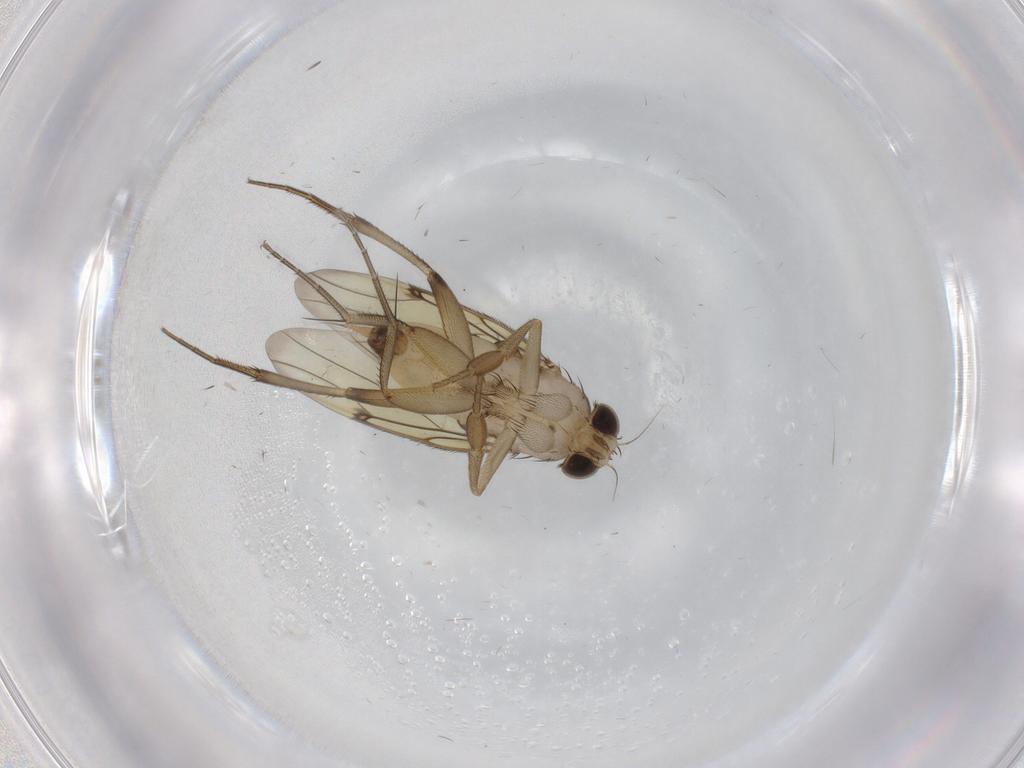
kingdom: Animalia
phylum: Arthropoda
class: Insecta
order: Diptera
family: Phoridae
